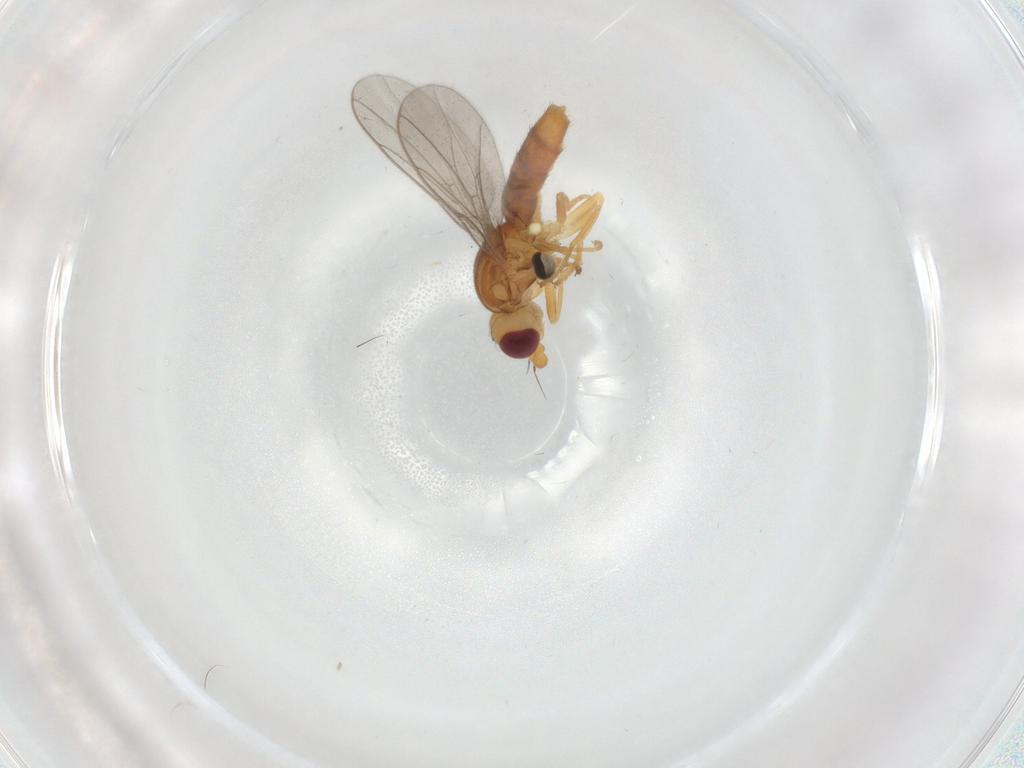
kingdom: Animalia
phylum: Arthropoda
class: Insecta
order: Diptera
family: Chloropidae
